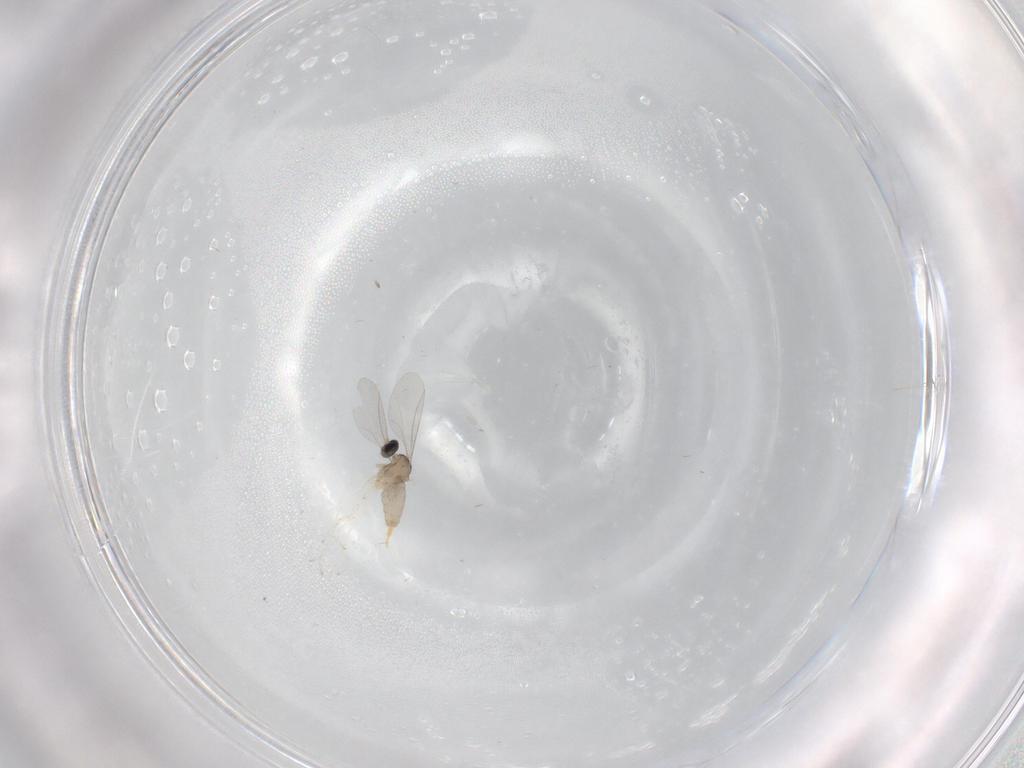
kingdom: Animalia
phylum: Arthropoda
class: Insecta
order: Diptera
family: Cecidomyiidae
